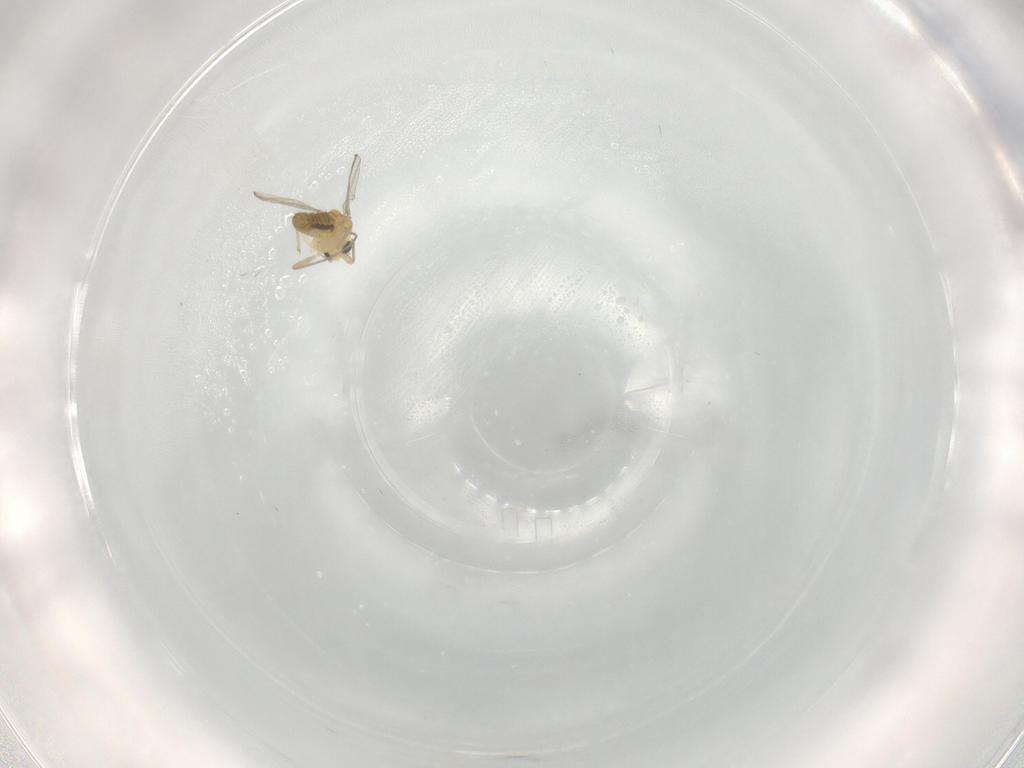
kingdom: Animalia
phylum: Arthropoda
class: Insecta
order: Diptera
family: Chironomidae
